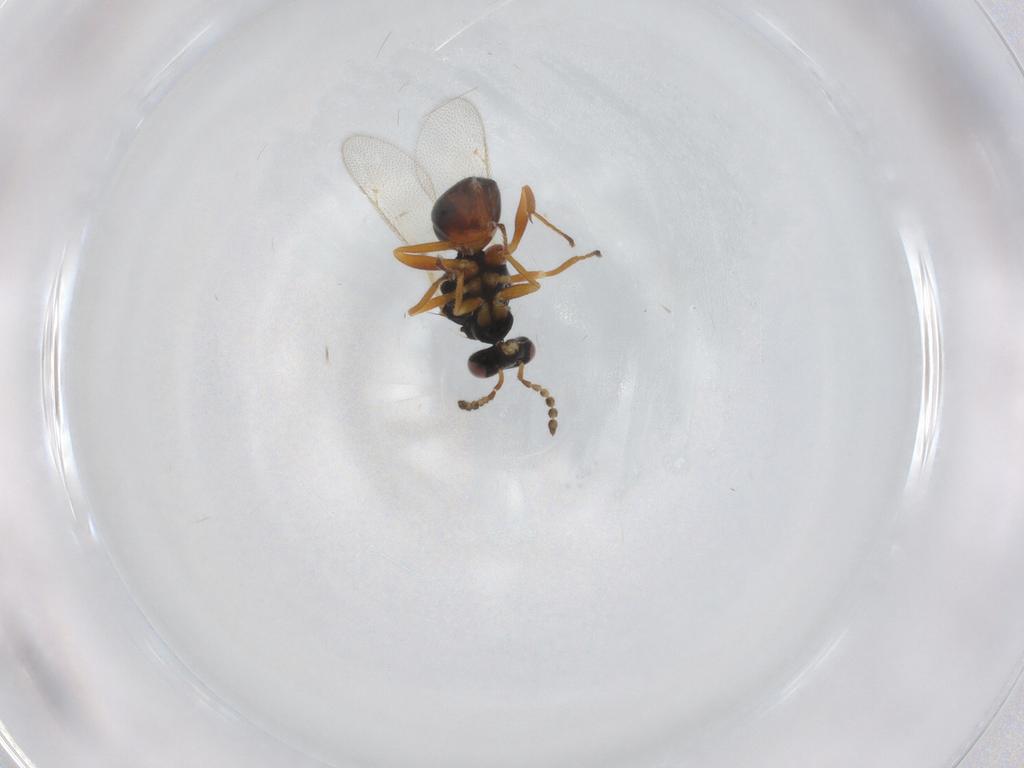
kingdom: Animalia
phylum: Arthropoda
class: Insecta
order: Hymenoptera
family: Eulophidae
